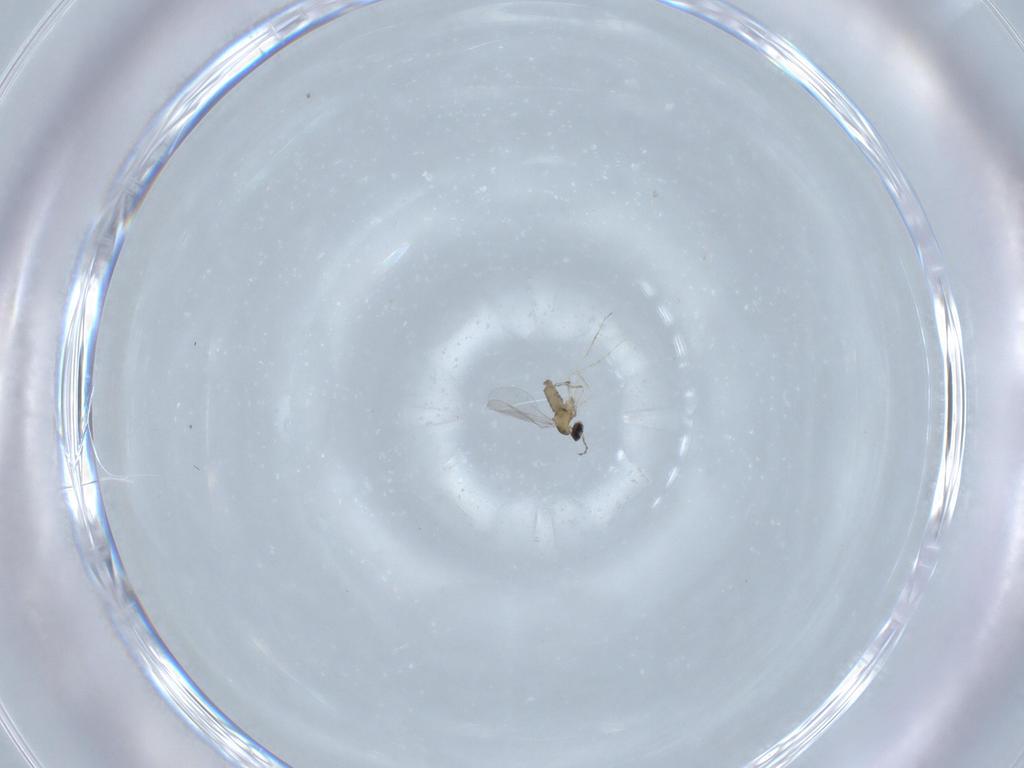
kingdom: Animalia
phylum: Arthropoda
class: Insecta
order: Diptera
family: Cecidomyiidae
